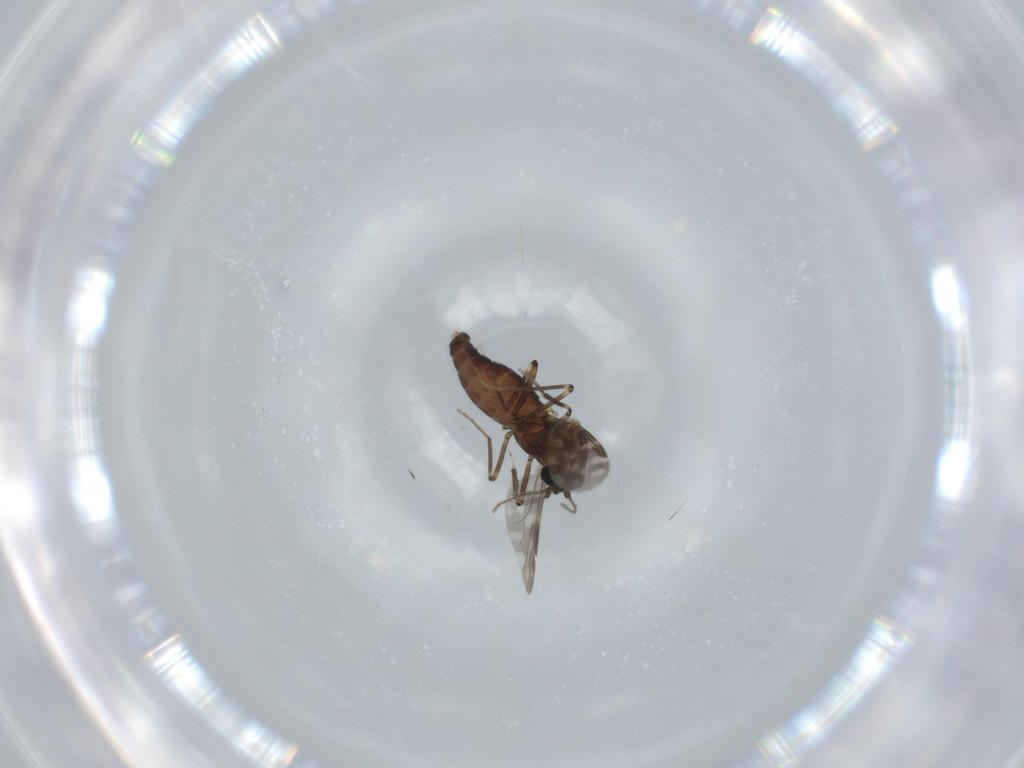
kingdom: Animalia
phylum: Arthropoda
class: Insecta
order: Diptera
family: Ceratopogonidae
